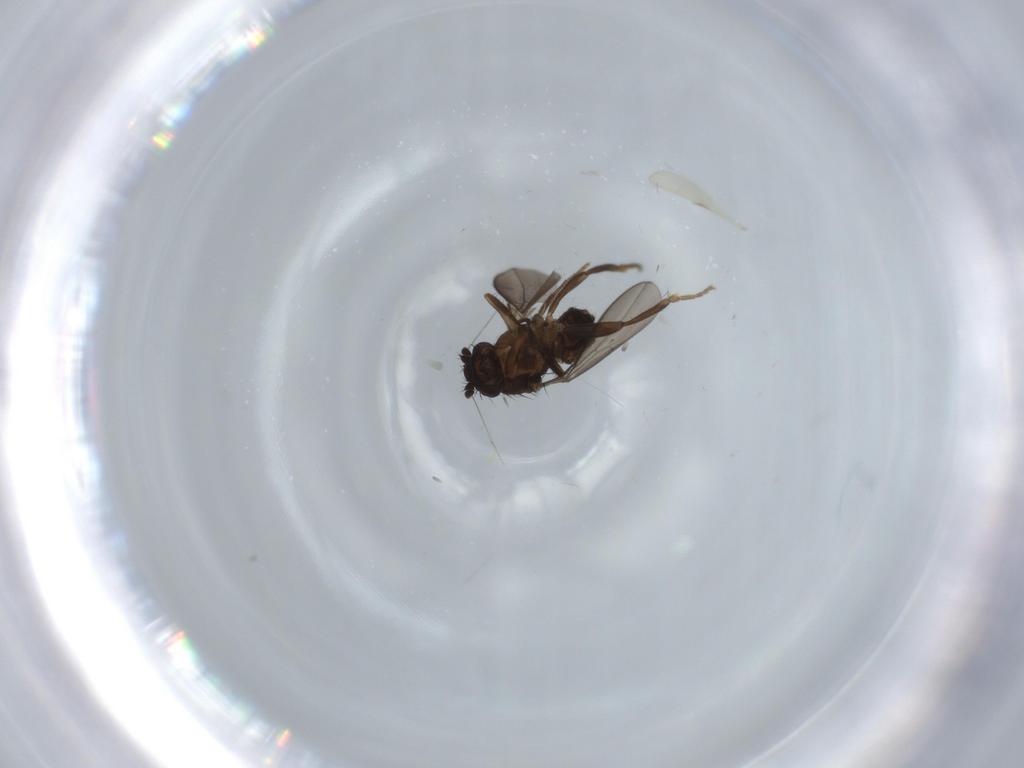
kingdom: Animalia
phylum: Arthropoda
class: Insecta
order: Diptera
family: Sphaeroceridae
